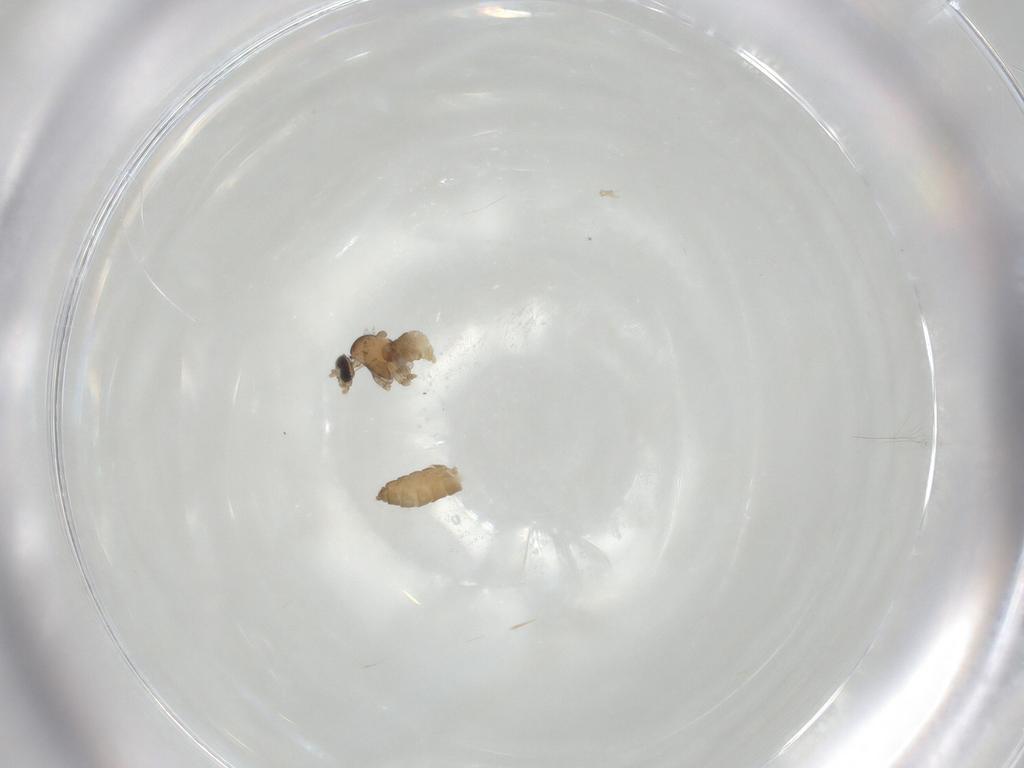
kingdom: Animalia
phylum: Arthropoda
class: Insecta
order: Diptera
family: Cecidomyiidae
